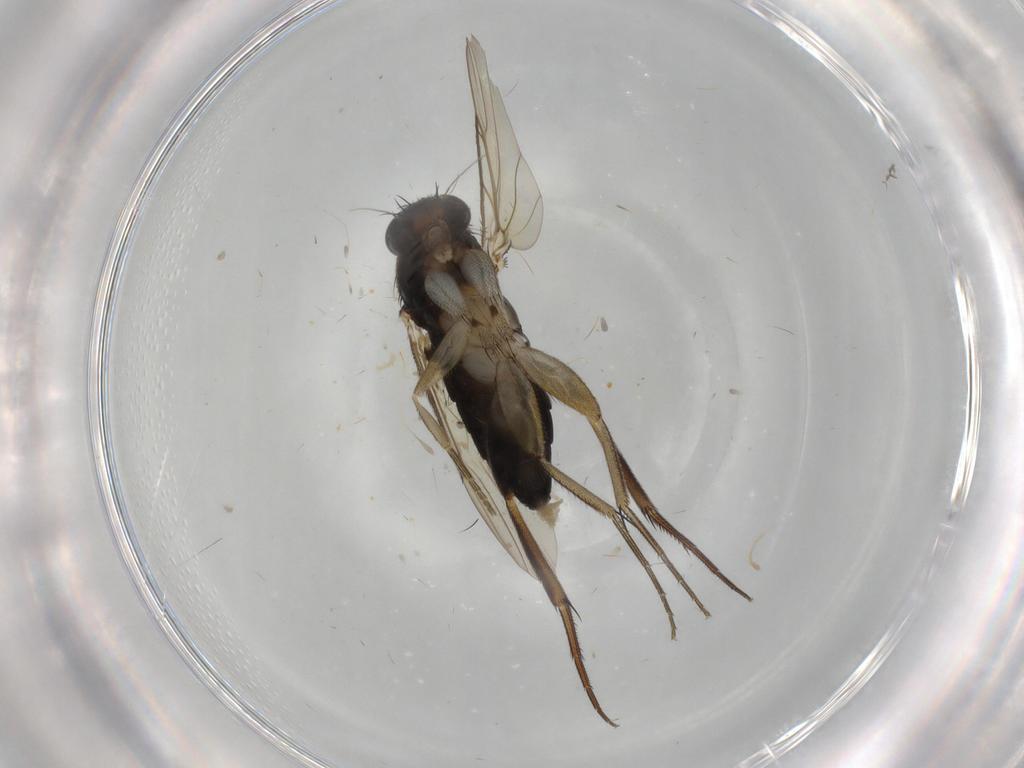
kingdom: Animalia
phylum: Arthropoda
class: Insecta
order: Diptera
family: Phoridae
